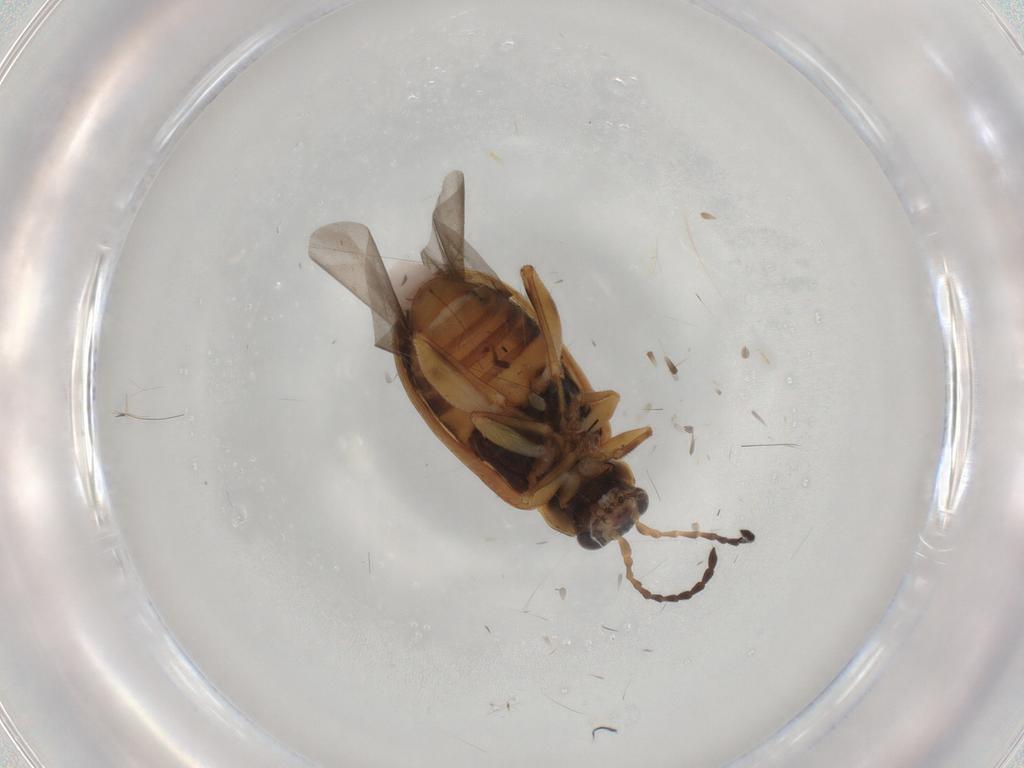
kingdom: Animalia
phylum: Arthropoda
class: Insecta
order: Coleoptera
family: Chrysomelidae
